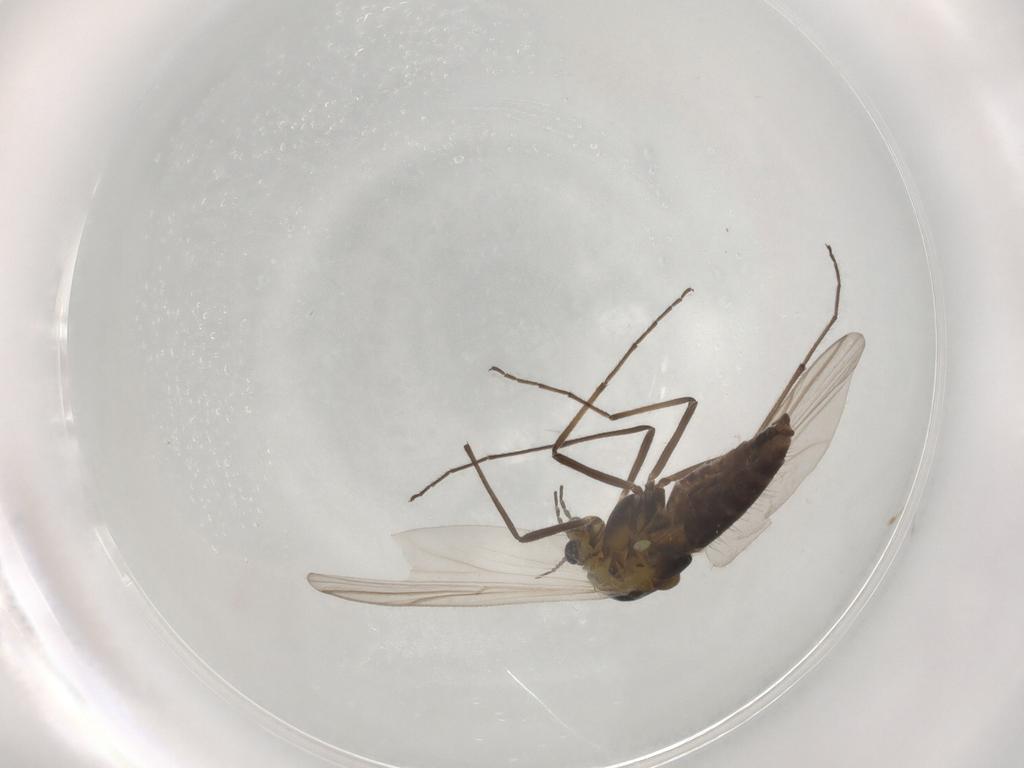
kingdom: Animalia
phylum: Arthropoda
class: Insecta
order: Diptera
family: Chironomidae
